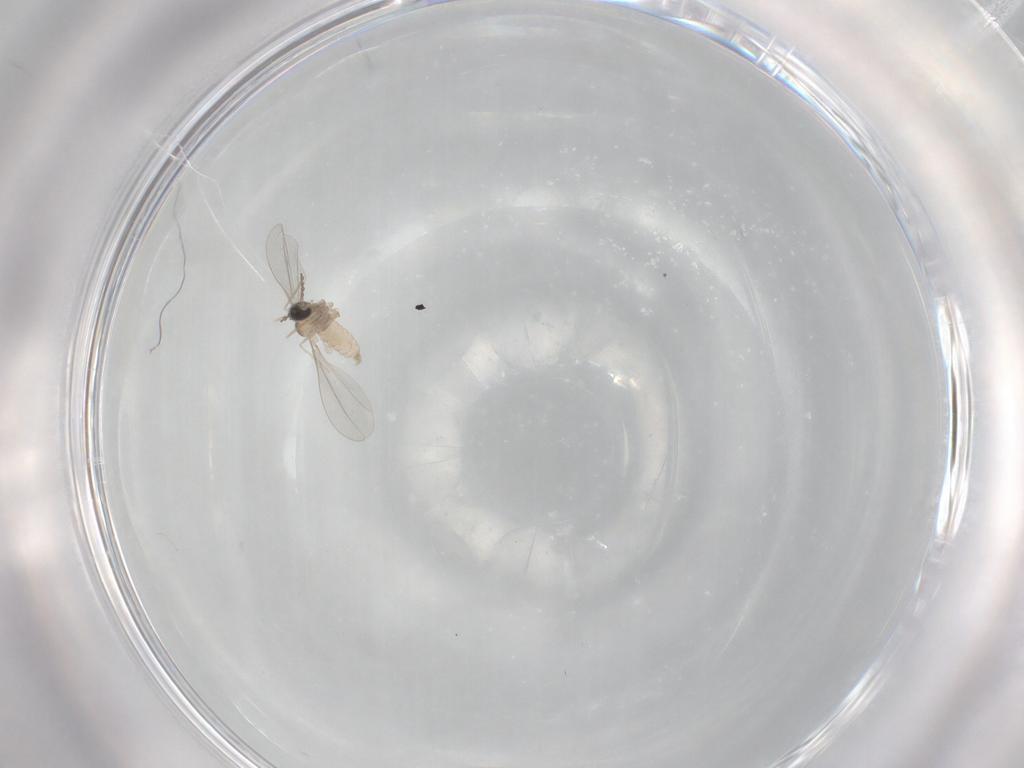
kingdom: Animalia
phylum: Arthropoda
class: Insecta
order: Diptera
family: Cecidomyiidae
